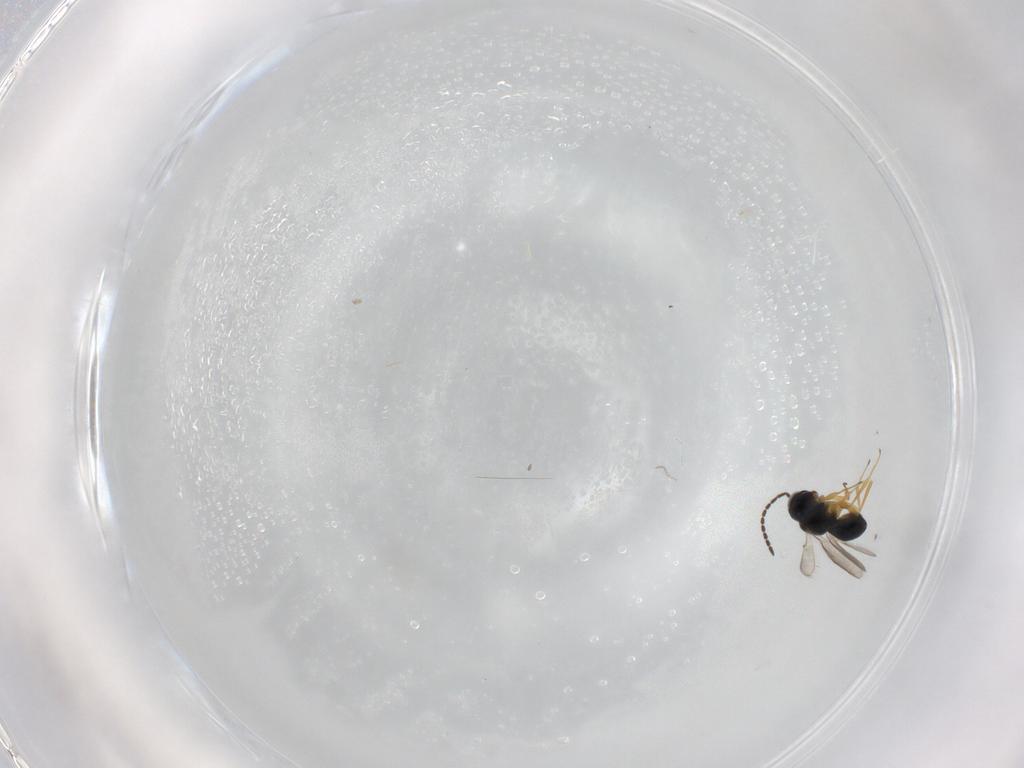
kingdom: Animalia
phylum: Arthropoda
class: Insecta
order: Hymenoptera
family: Scelionidae
